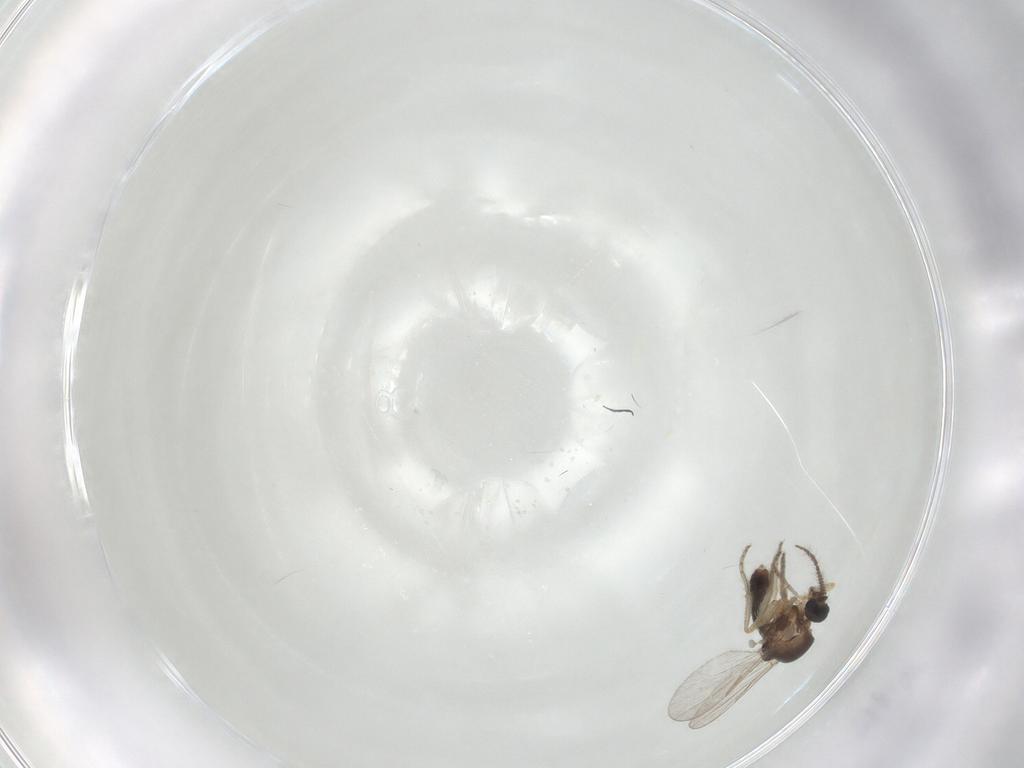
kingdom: Animalia
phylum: Arthropoda
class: Insecta
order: Diptera
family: Ceratopogonidae
